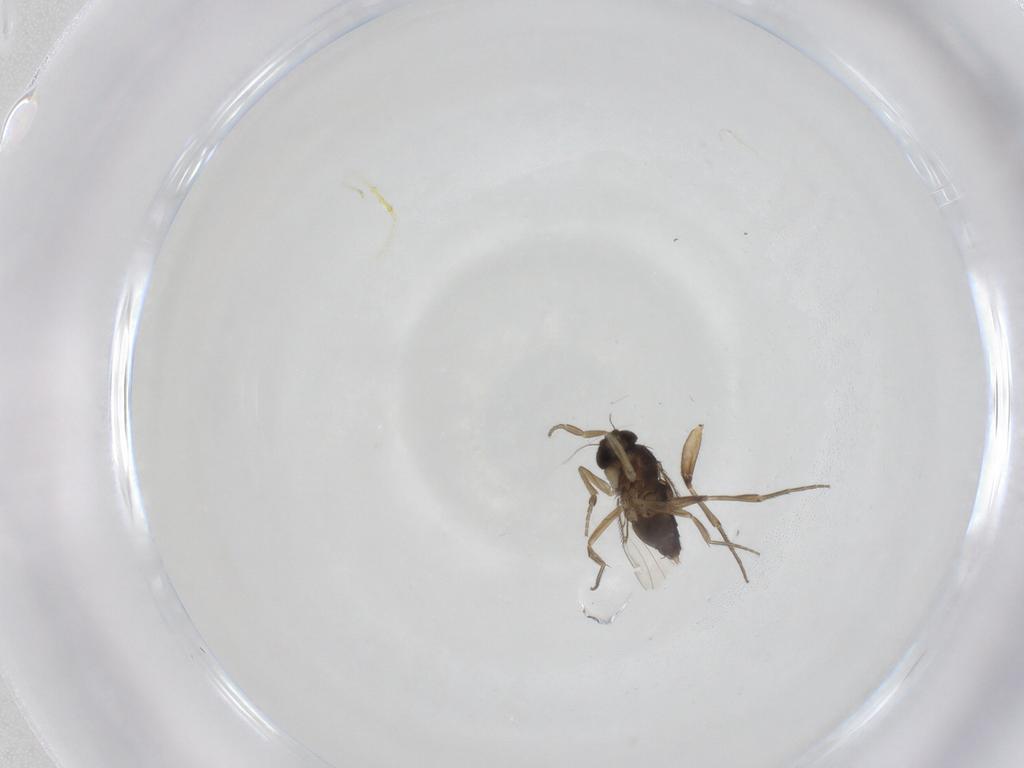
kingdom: Animalia
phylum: Arthropoda
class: Insecta
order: Diptera
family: Phoridae
